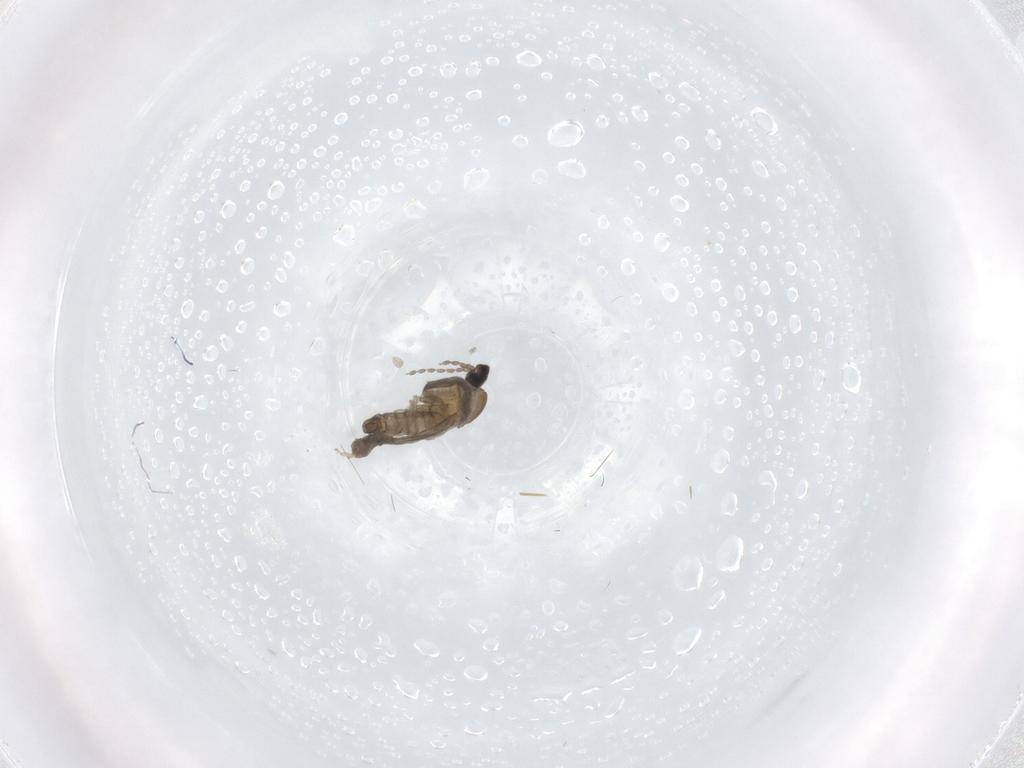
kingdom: Animalia
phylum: Arthropoda
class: Insecta
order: Diptera
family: Cecidomyiidae
